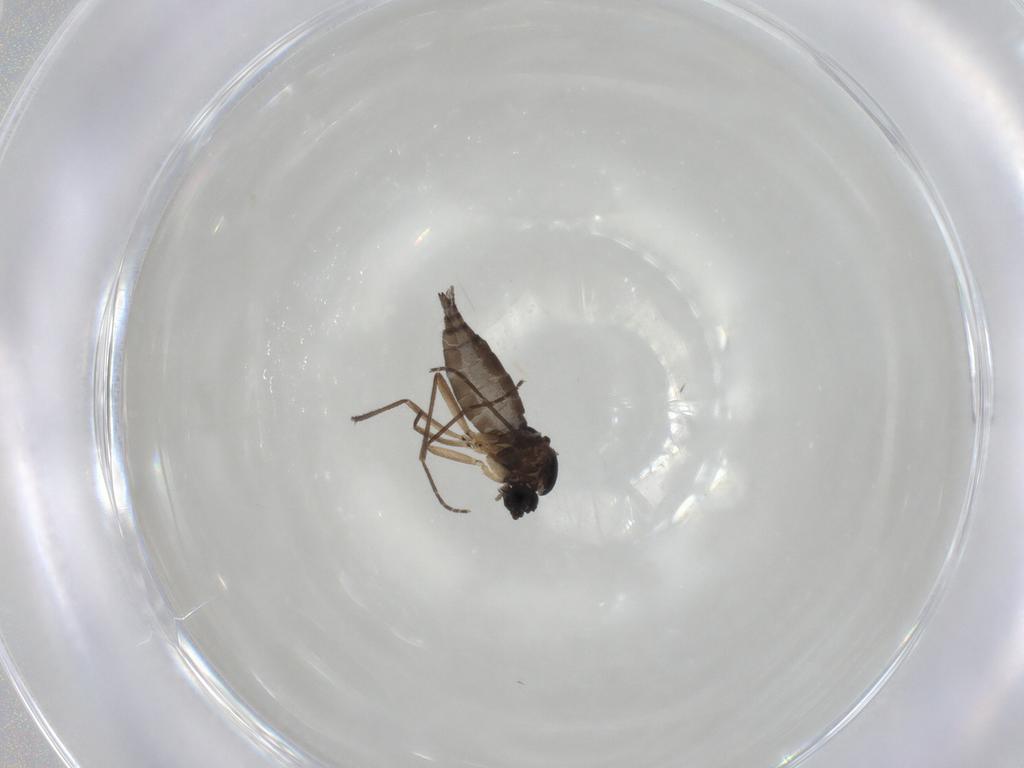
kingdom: Animalia
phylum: Arthropoda
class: Insecta
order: Diptera
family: Sciaridae
